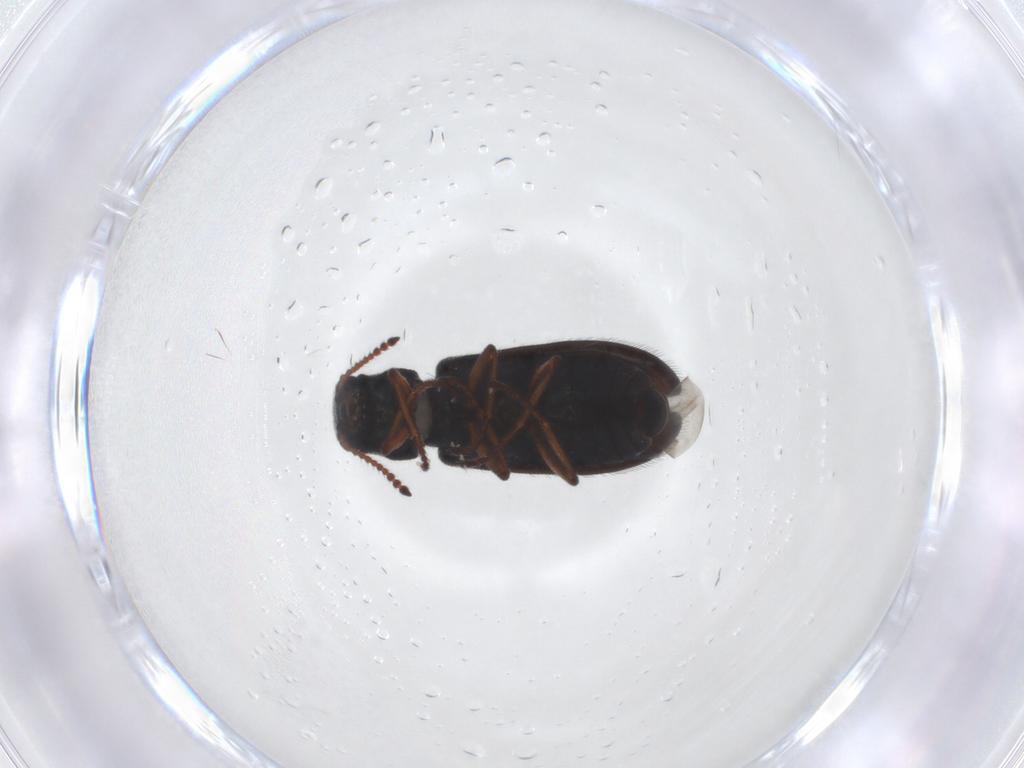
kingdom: Animalia
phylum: Arthropoda
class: Insecta
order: Coleoptera
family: Melyridae
